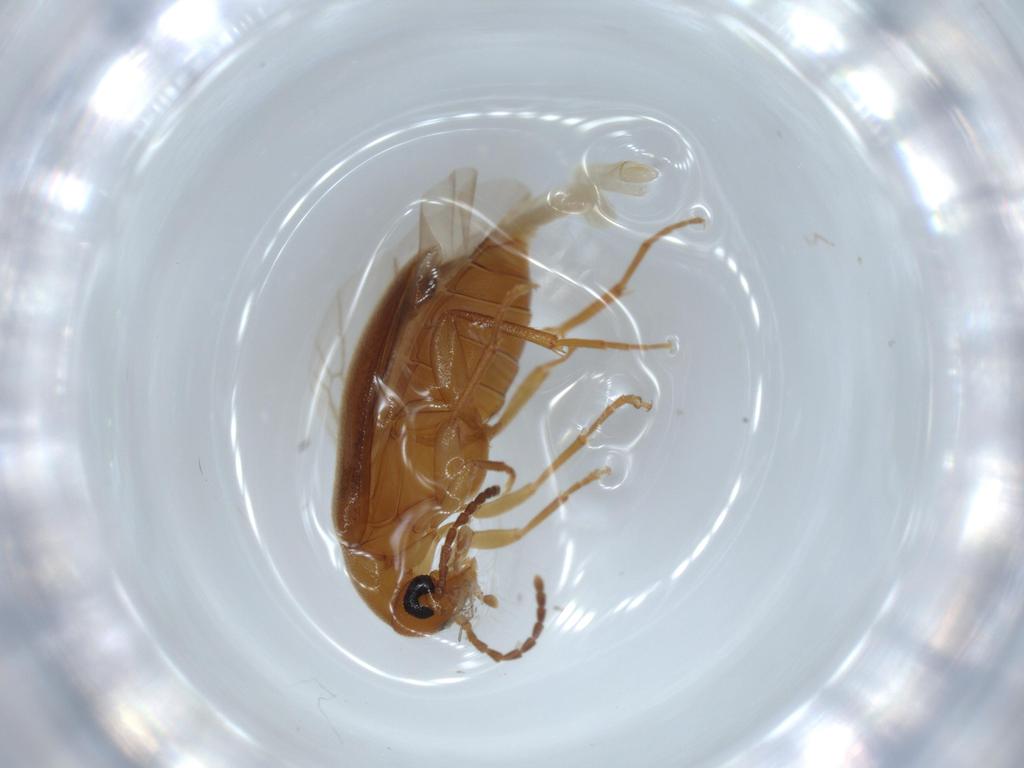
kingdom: Animalia
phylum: Arthropoda
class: Insecta
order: Coleoptera
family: Scraptiidae
